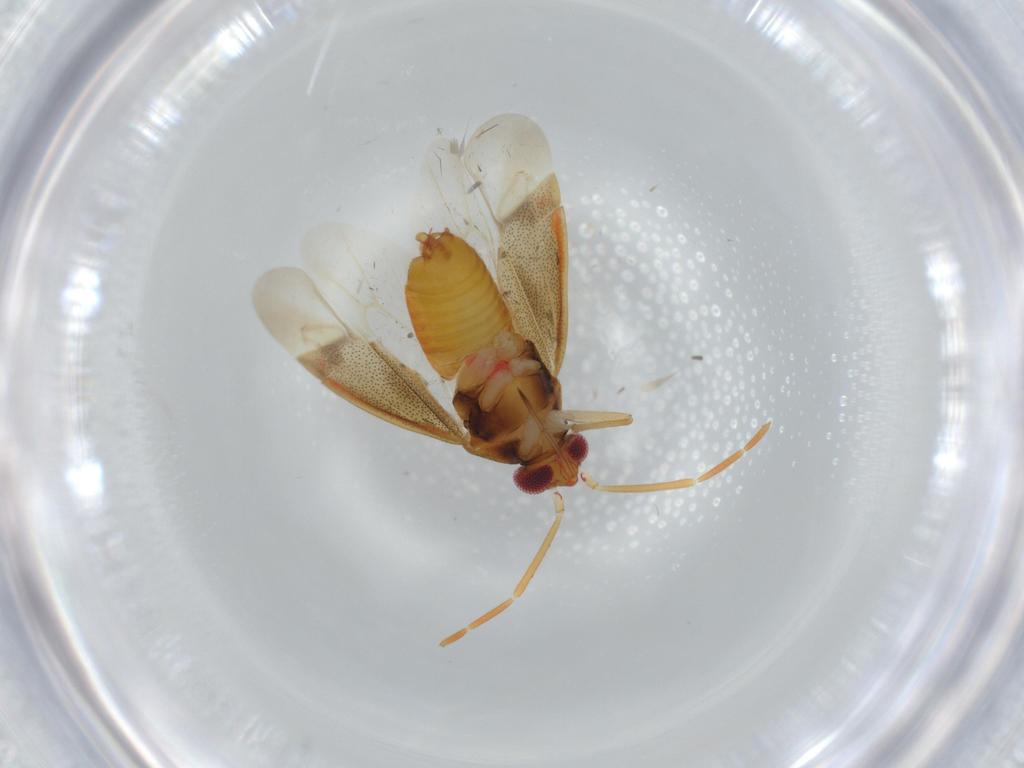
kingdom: Animalia
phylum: Arthropoda
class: Insecta
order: Hemiptera
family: Miridae
